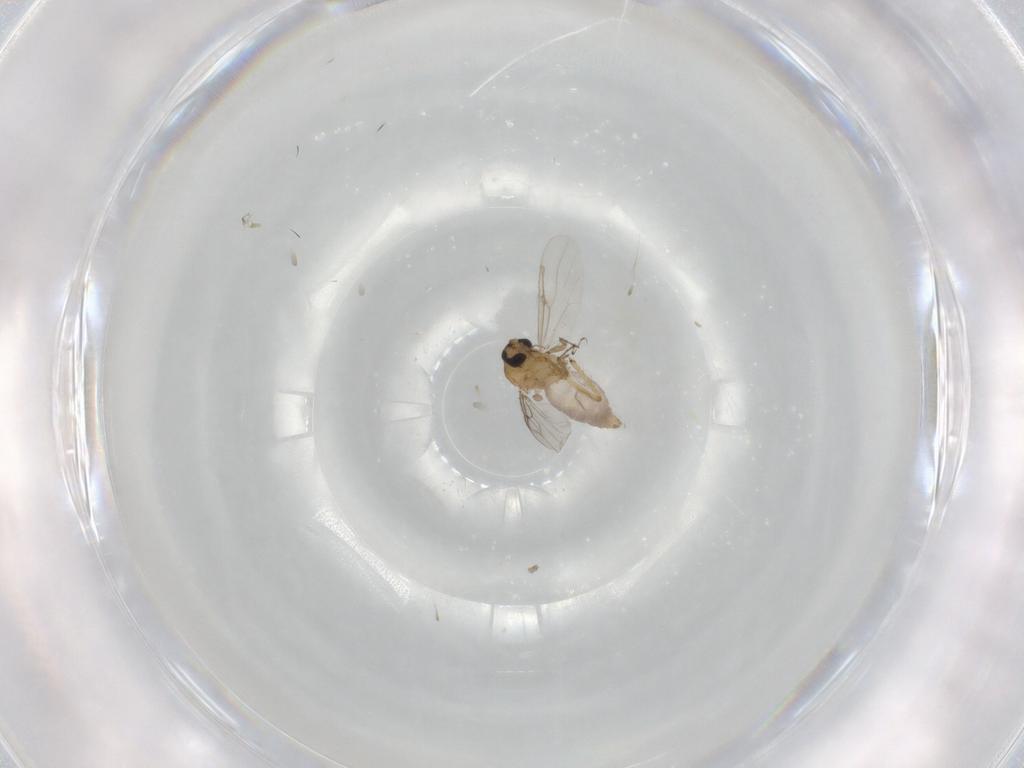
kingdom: Animalia
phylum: Arthropoda
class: Insecta
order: Diptera
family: Ceratopogonidae
